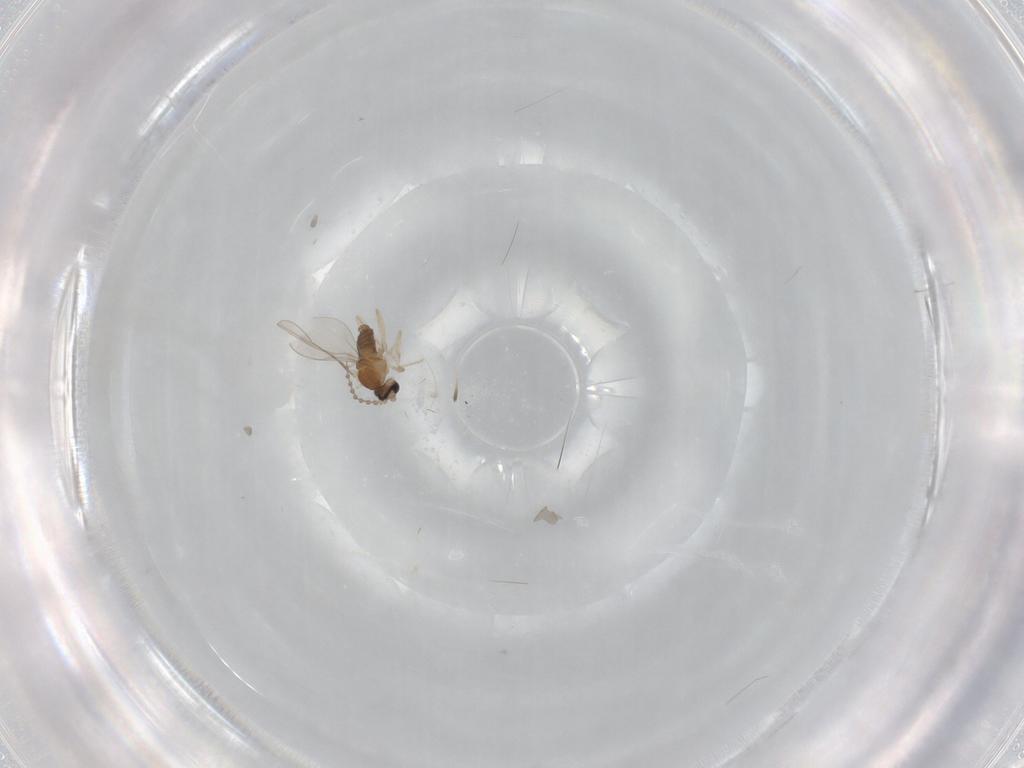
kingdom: Animalia
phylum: Arthropoda
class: Insecta
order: Diptera
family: Cecidomyiidae
